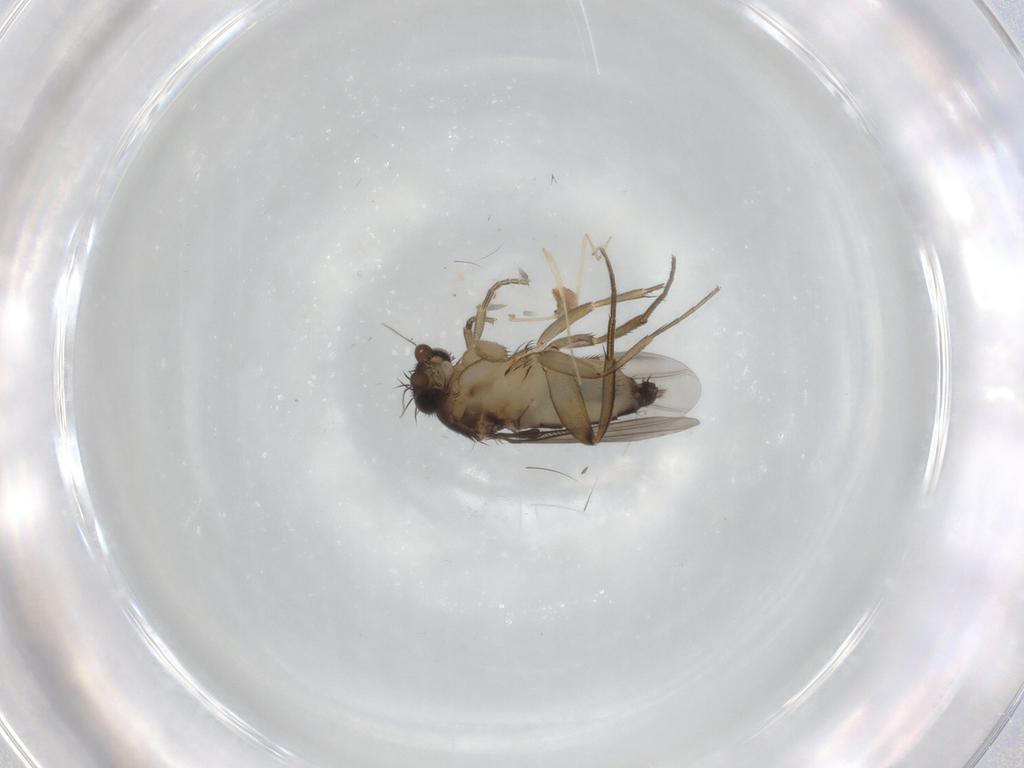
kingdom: Animalia
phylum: Arthropoda
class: Insecta
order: Diptera
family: Phoridae
